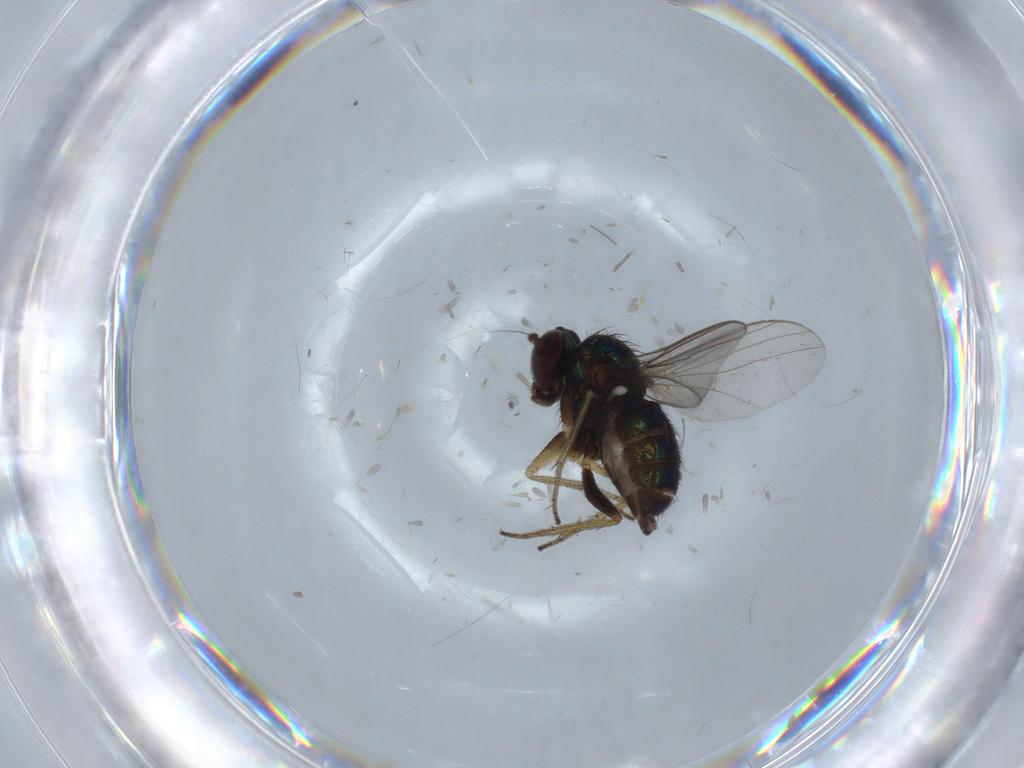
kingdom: Animalia
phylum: Arthropoda
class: Insecta
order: Diptera
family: Dolichopodidae
